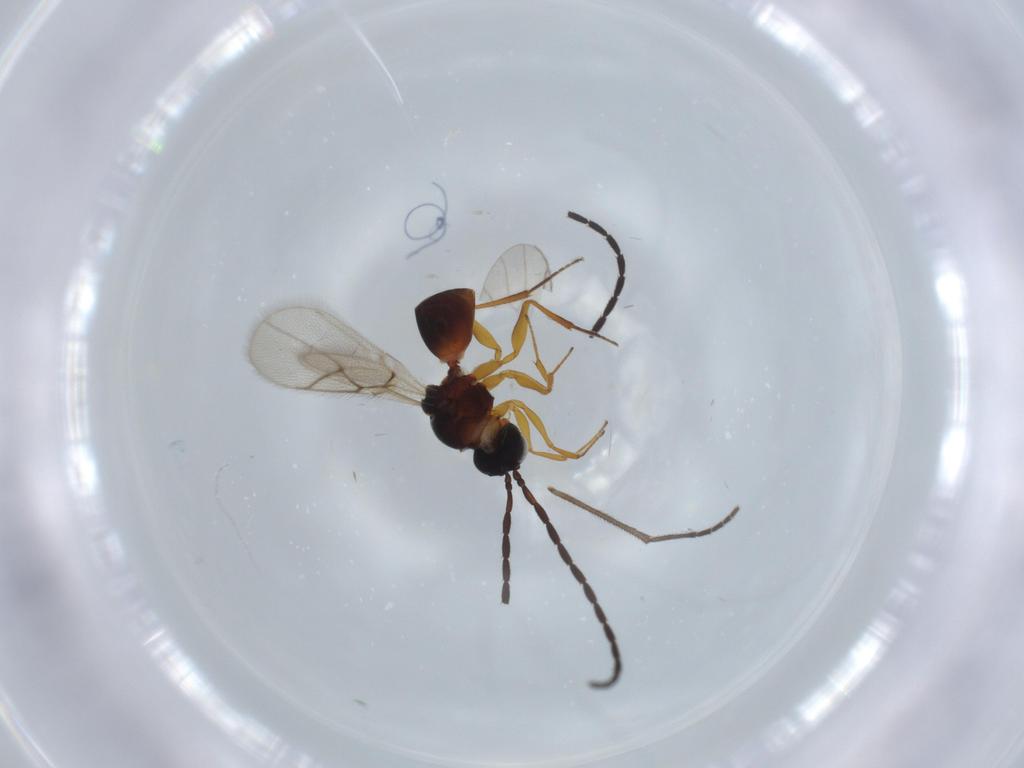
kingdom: Animalia
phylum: Arthropoda
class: Insecta
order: Hymenoptera
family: Figitidae
